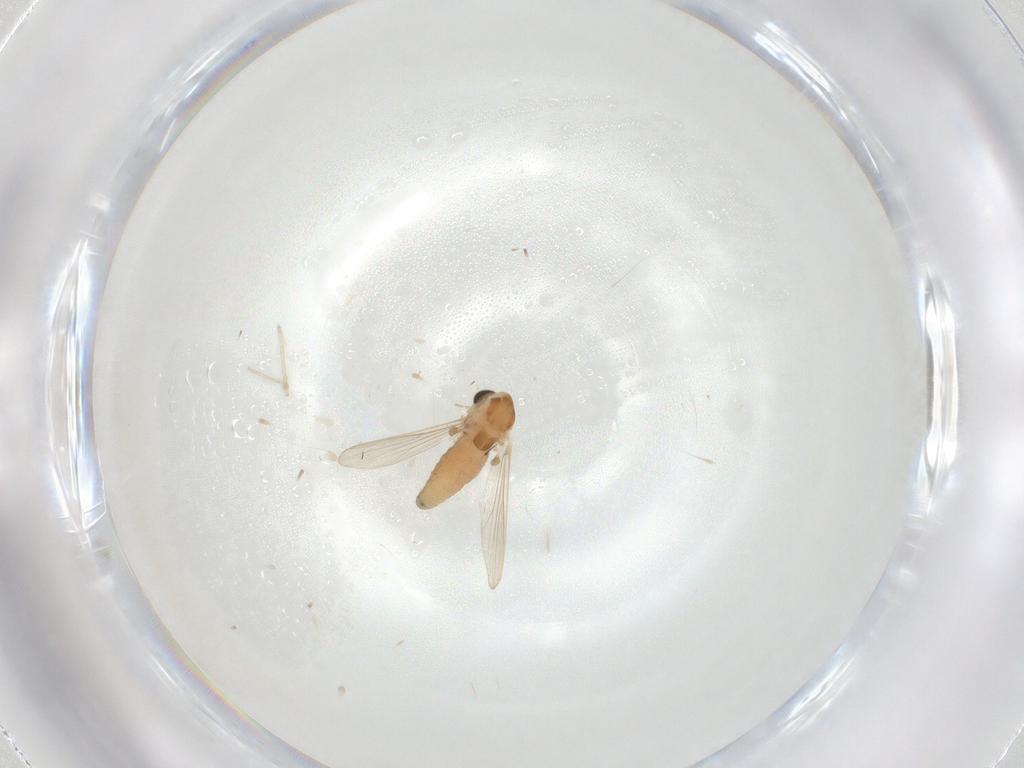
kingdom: Animalia
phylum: Arthropoda
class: Insecta
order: Diptera
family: Chironomidae
